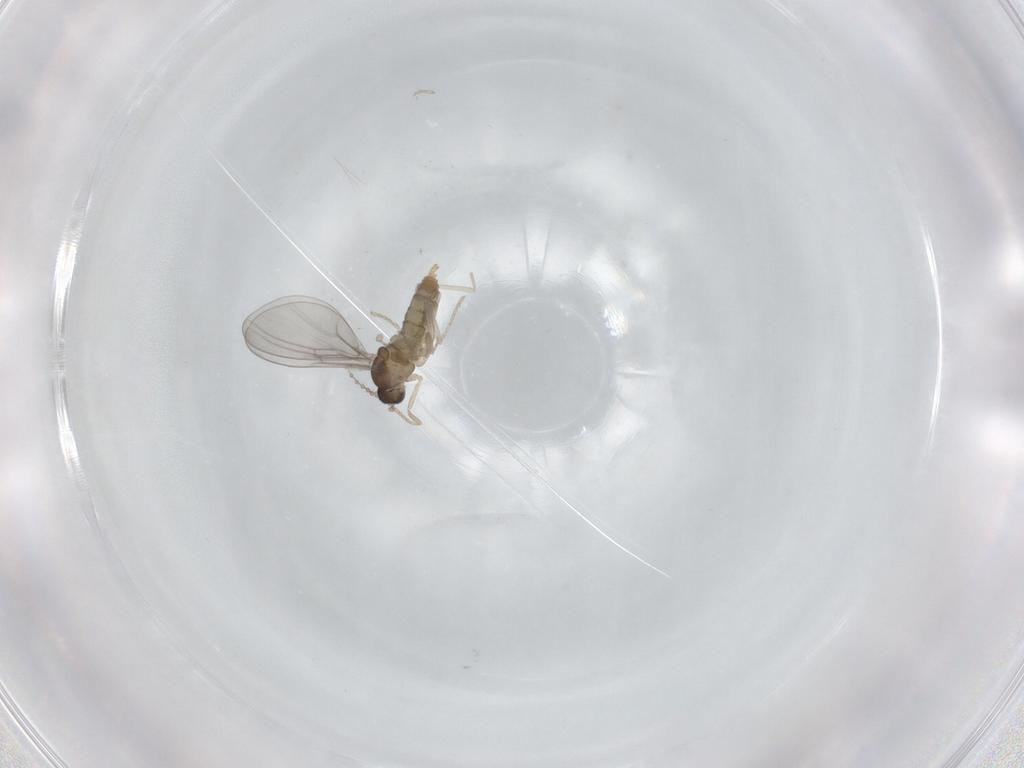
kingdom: Animalia
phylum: Arthropoda
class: Insecta
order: Diptera
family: Cecidomyiidae
